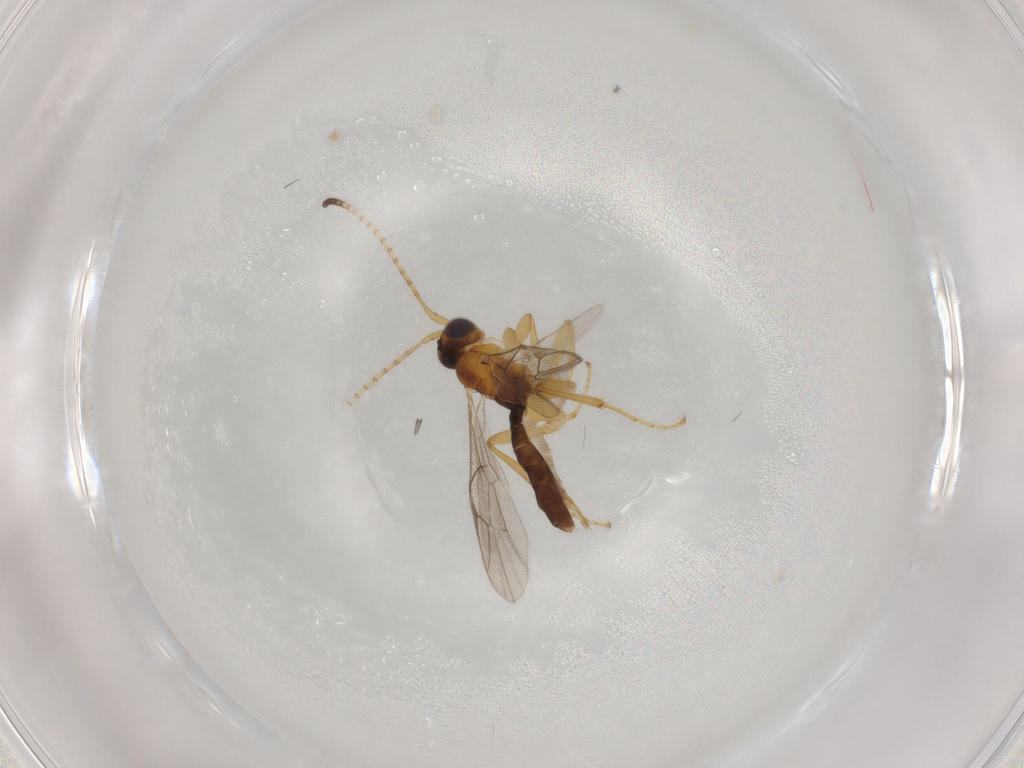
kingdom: Animalia
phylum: Arthropoda
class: Insecta
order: Hymenoptera
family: Ichneumonidae
